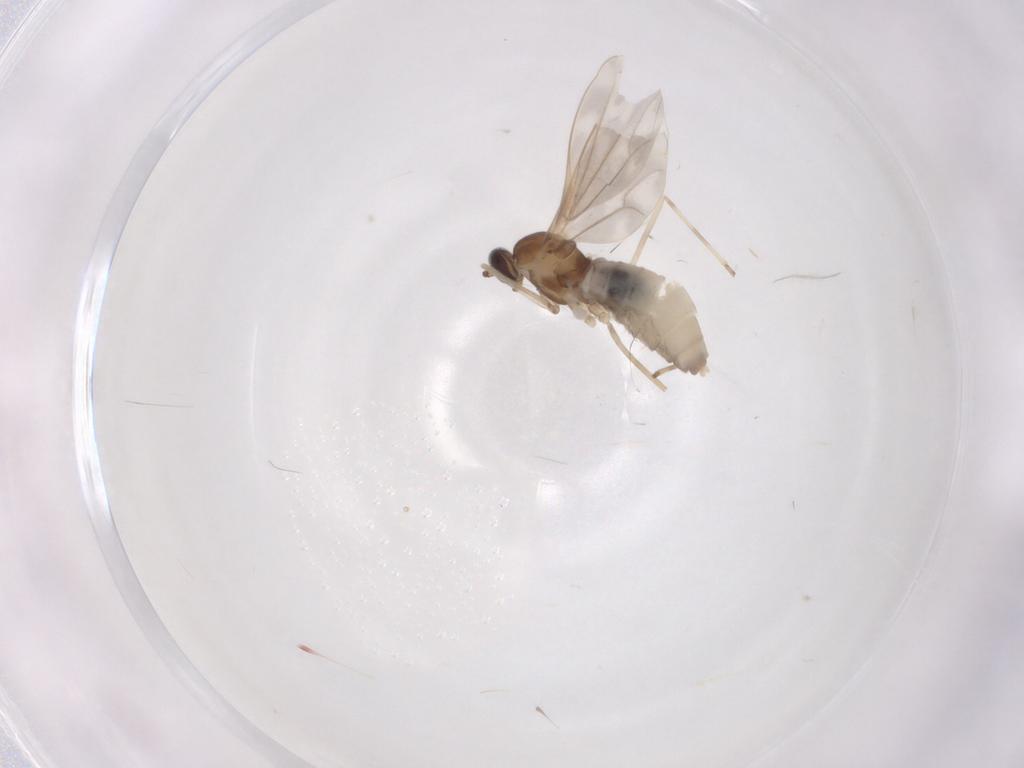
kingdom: Animalia
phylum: Arthropoda
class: Insecta
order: Diptera
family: Cecidomyiidae
